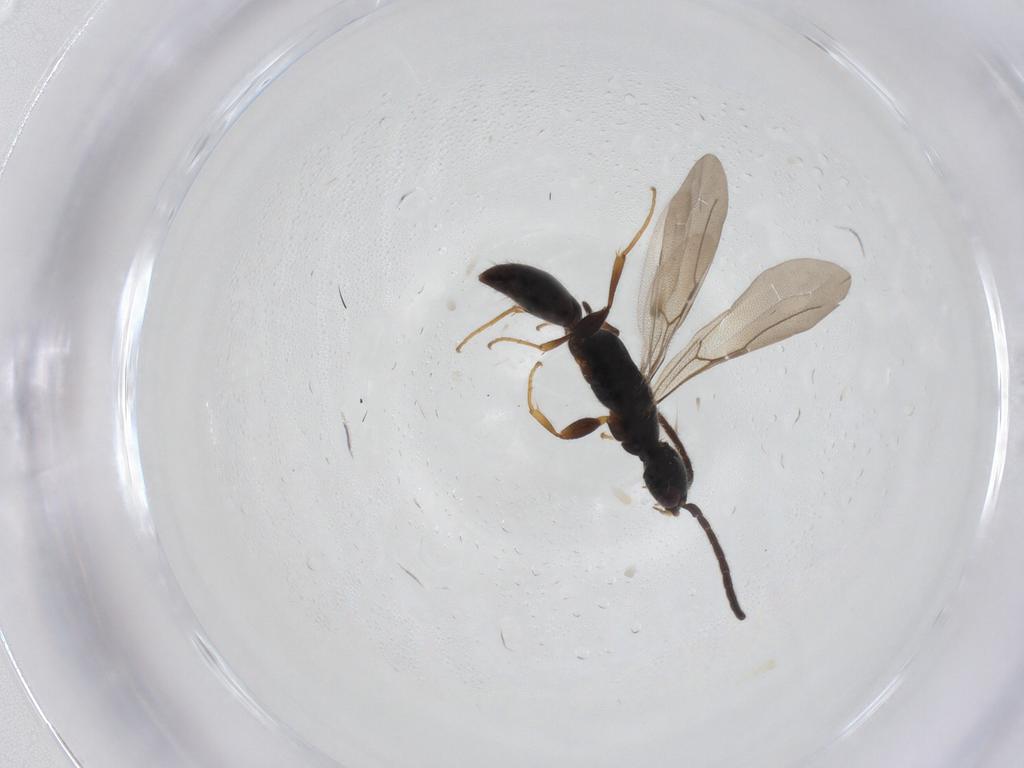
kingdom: Animalia
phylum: Arthropoda
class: Insecta
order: Hymenoptera
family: Bethylidae
